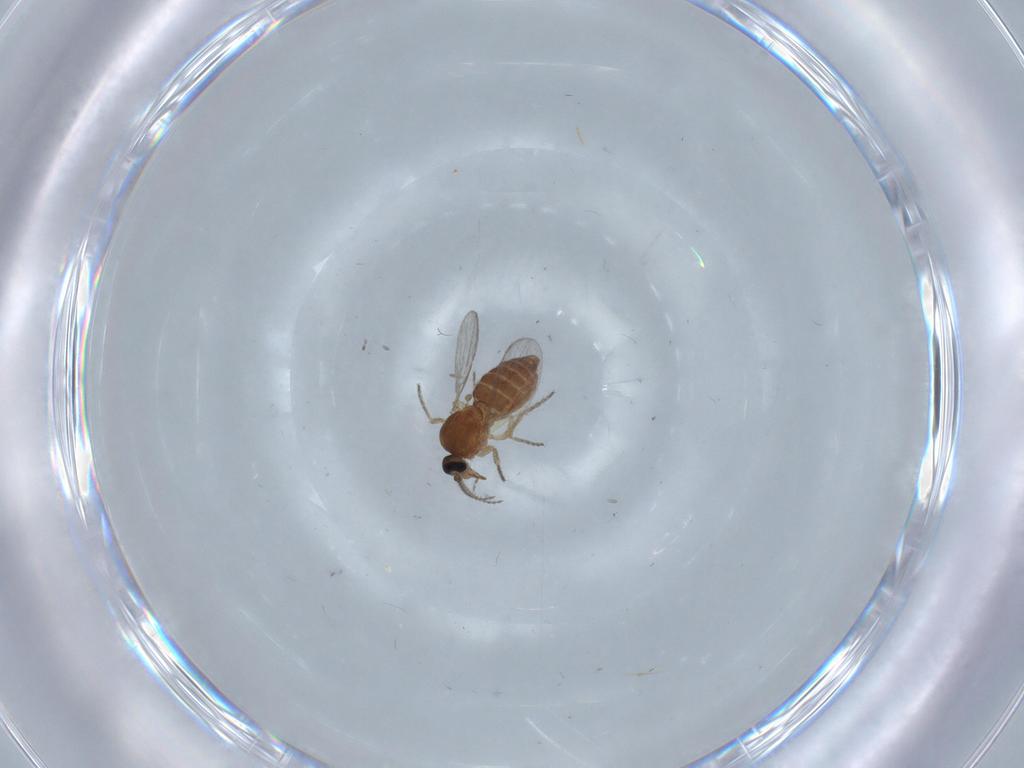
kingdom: Animalia
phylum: Arthropoda
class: Insecta
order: Diptera
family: Ceratopogonidae
